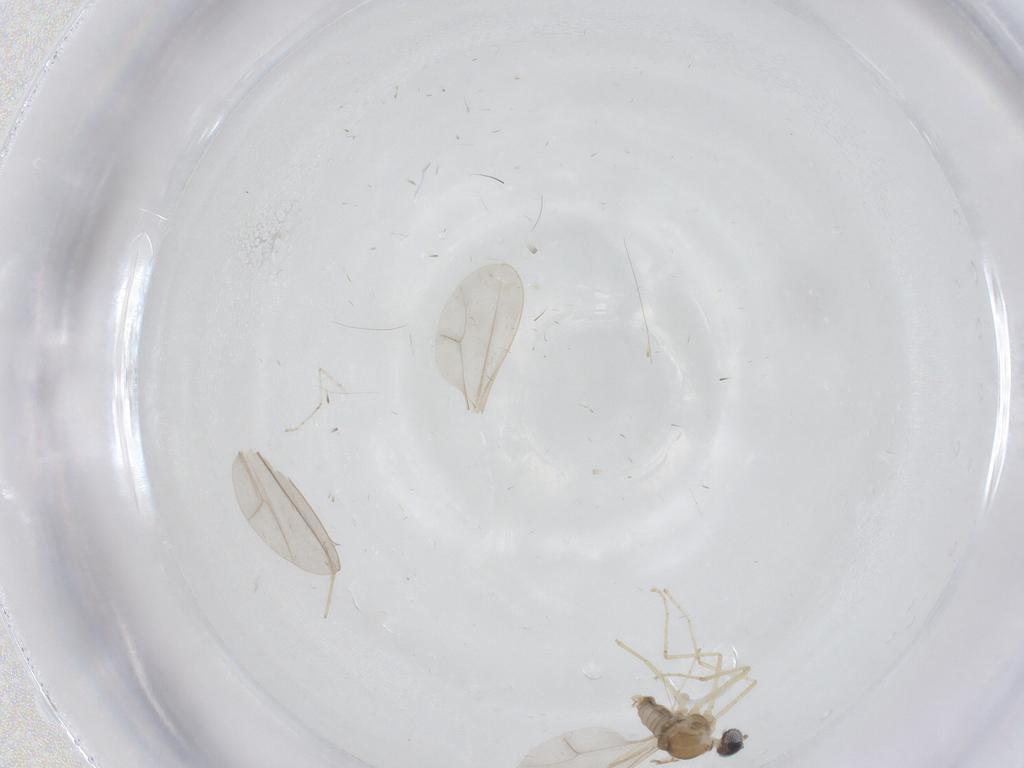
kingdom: Animalia
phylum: Arthropoda
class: Insecta
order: Diptera
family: Cecidomyiidae
